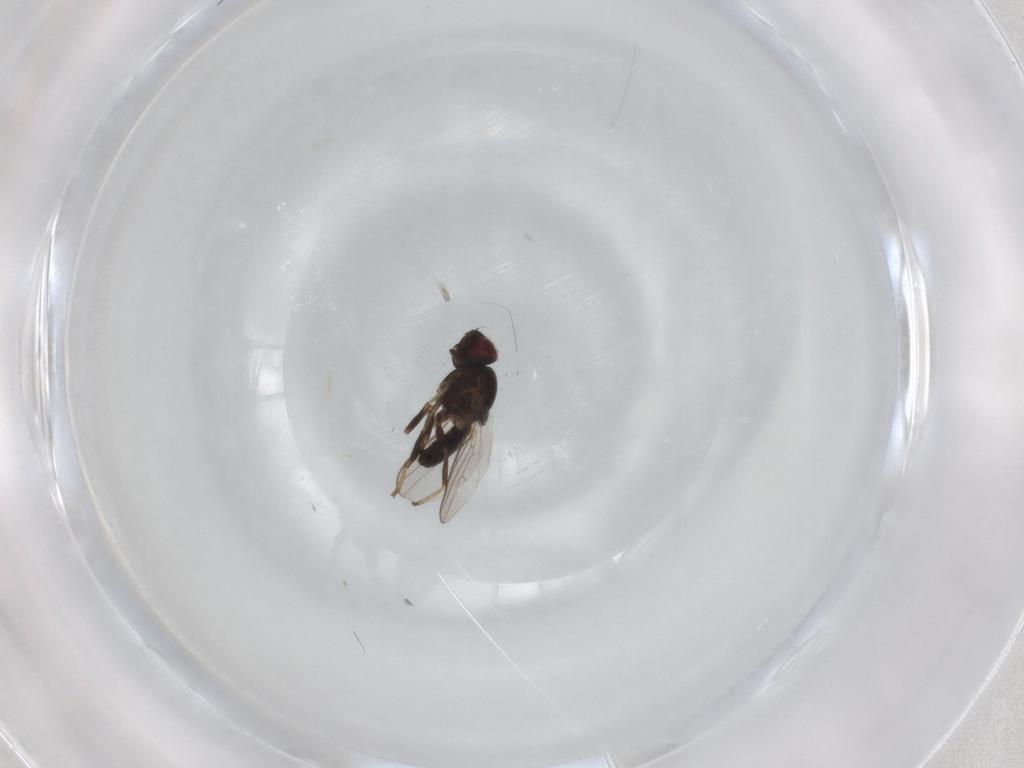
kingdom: Animalia
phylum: Arthropoda
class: Insecta
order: Diptera
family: Chloropidae
